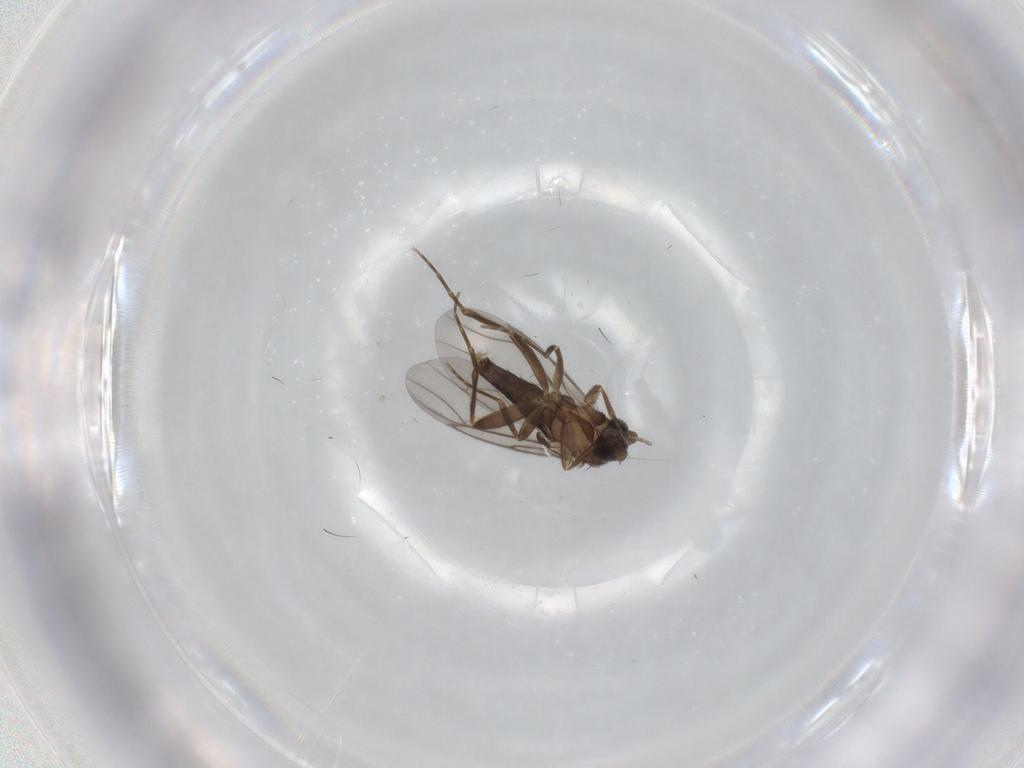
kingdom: Animalia
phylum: Arthropoda
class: Insecta
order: Diptera
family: Phoridae
